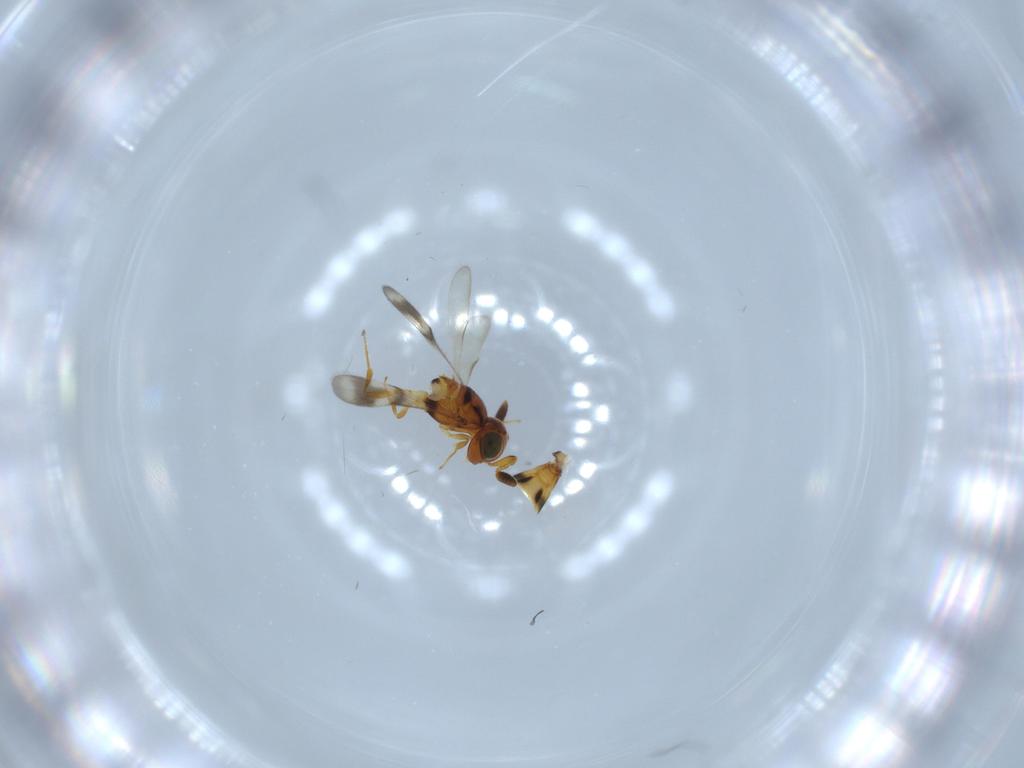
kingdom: Animalia
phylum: Arthropoda
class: Insecta
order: Hymenoptera
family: Scelionidae
